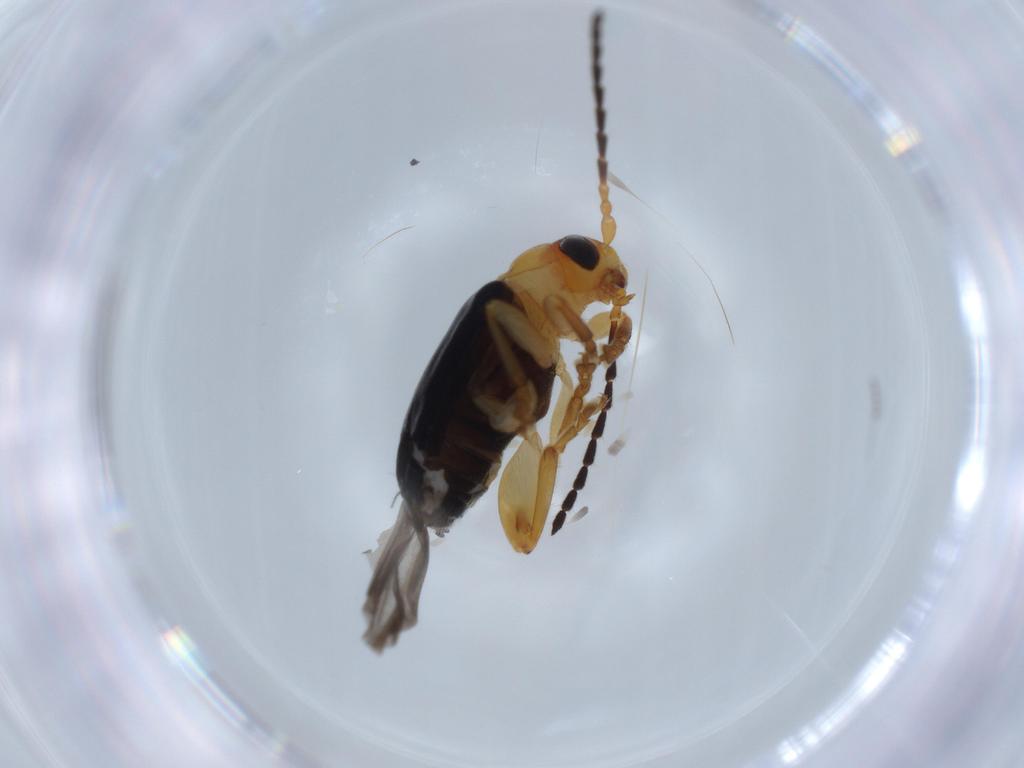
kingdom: Animalia
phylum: Arthropoda
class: Insecta
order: Coleoptera
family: Chrysomelidae
